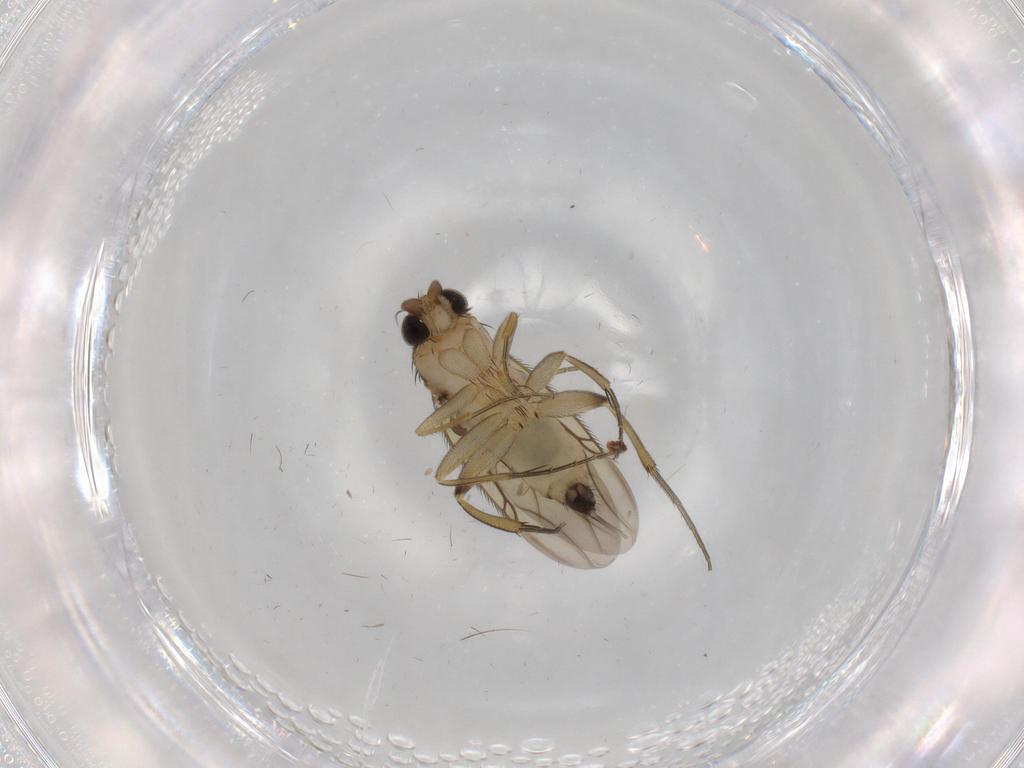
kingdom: Animalia
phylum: Arthropoda
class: Insecta
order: Diptera
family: Phoridae
